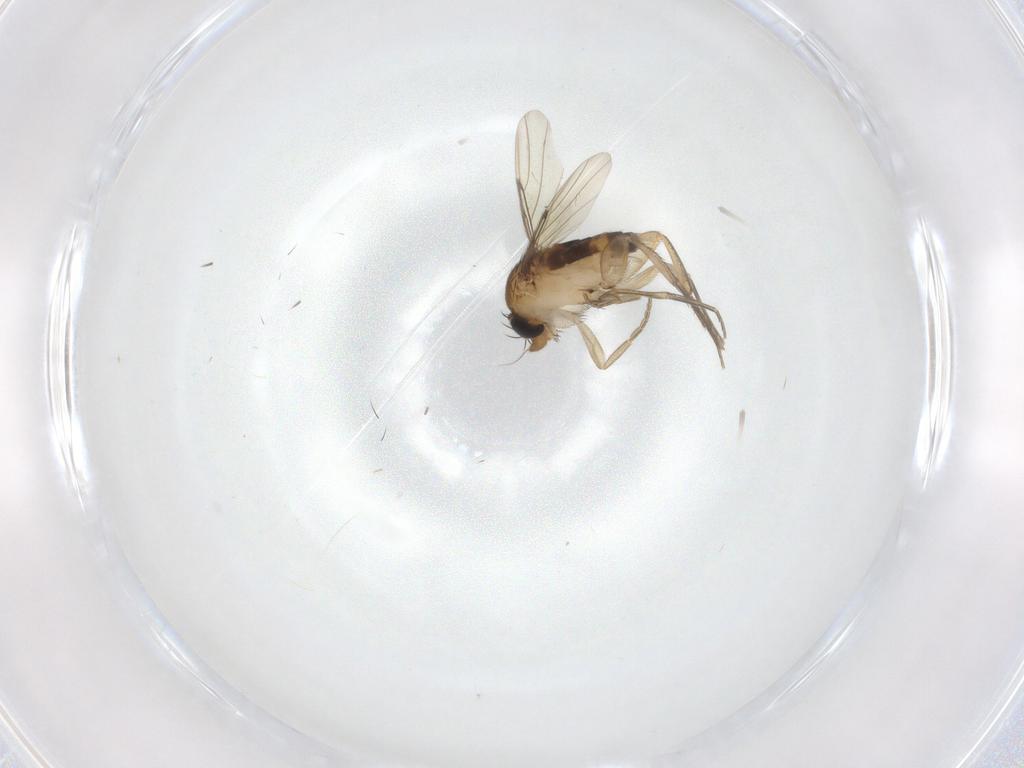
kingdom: Animalia
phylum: Arthropoda
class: Insecta
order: Diptera
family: Phoridae
